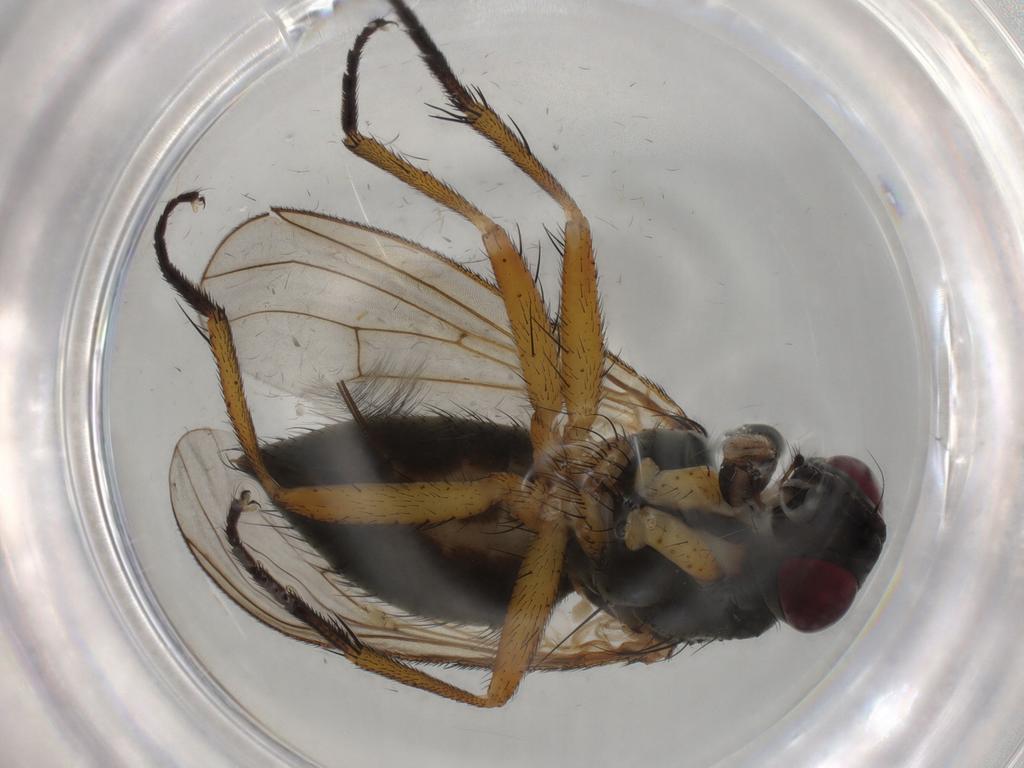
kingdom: Animalia
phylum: Arthropoda
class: Insecta
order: Diptera
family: Muscidae
